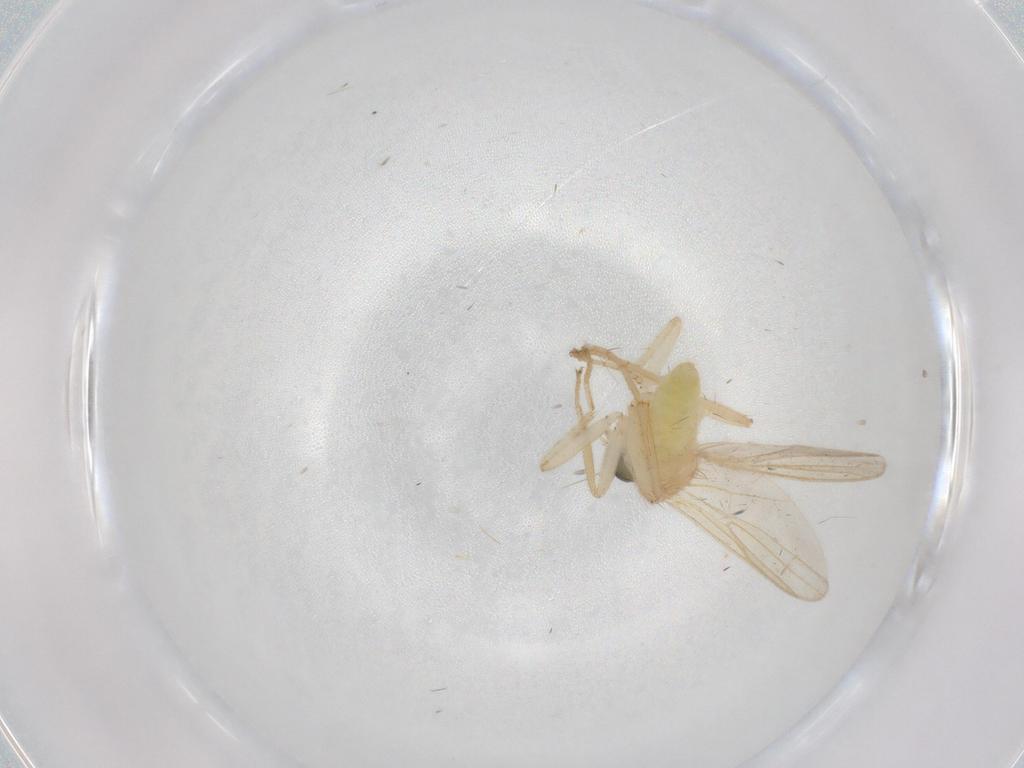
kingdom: Animalia
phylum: Arthropoda
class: Insecta
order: Diptera
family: Hybotidae
